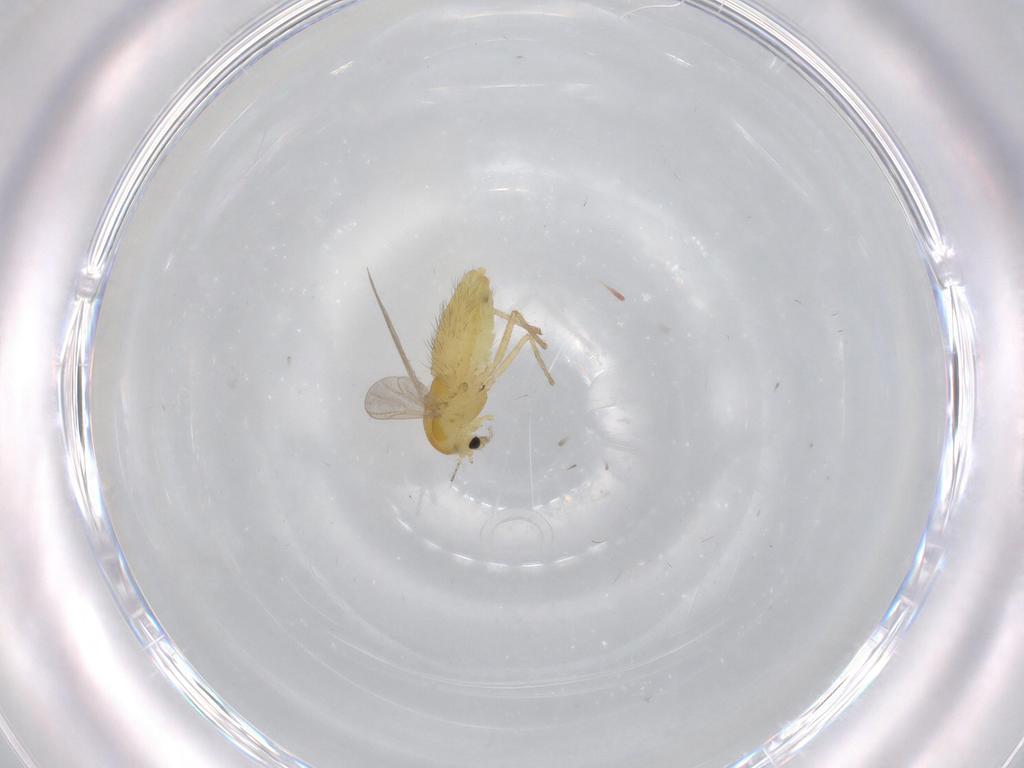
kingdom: Animalia
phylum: Arthropoda
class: Insecta
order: Diptera
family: Chironomidae
